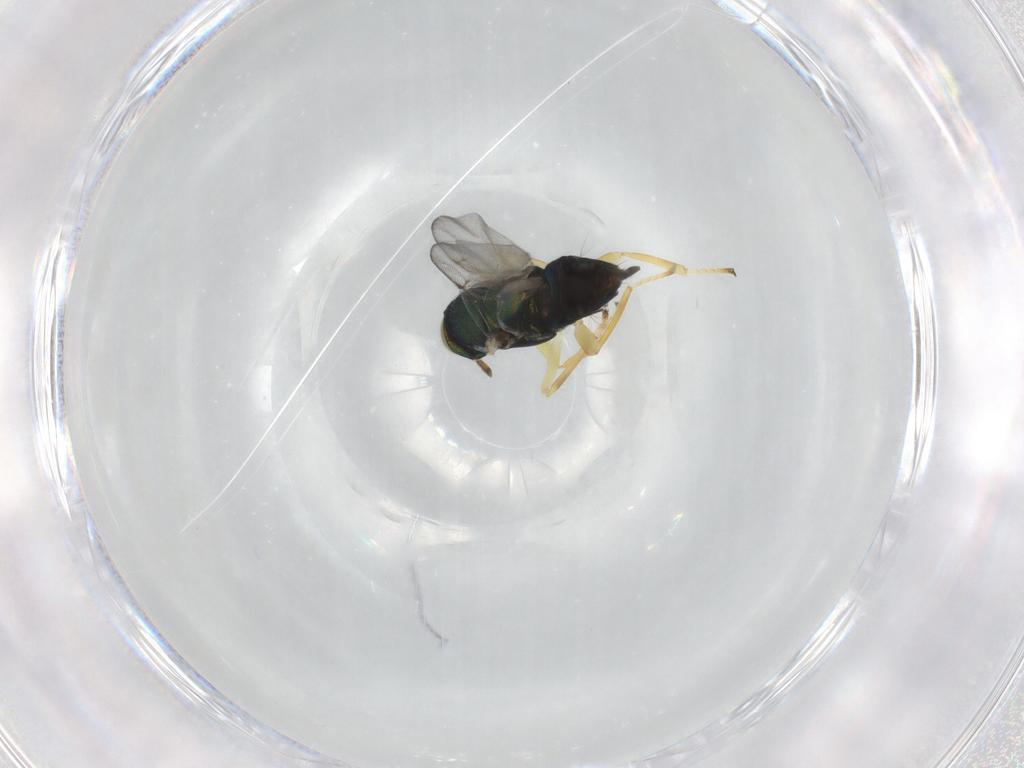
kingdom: Animalia
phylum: Arthropoda
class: Insecta
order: Hymenoptera
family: Encyrtidae
